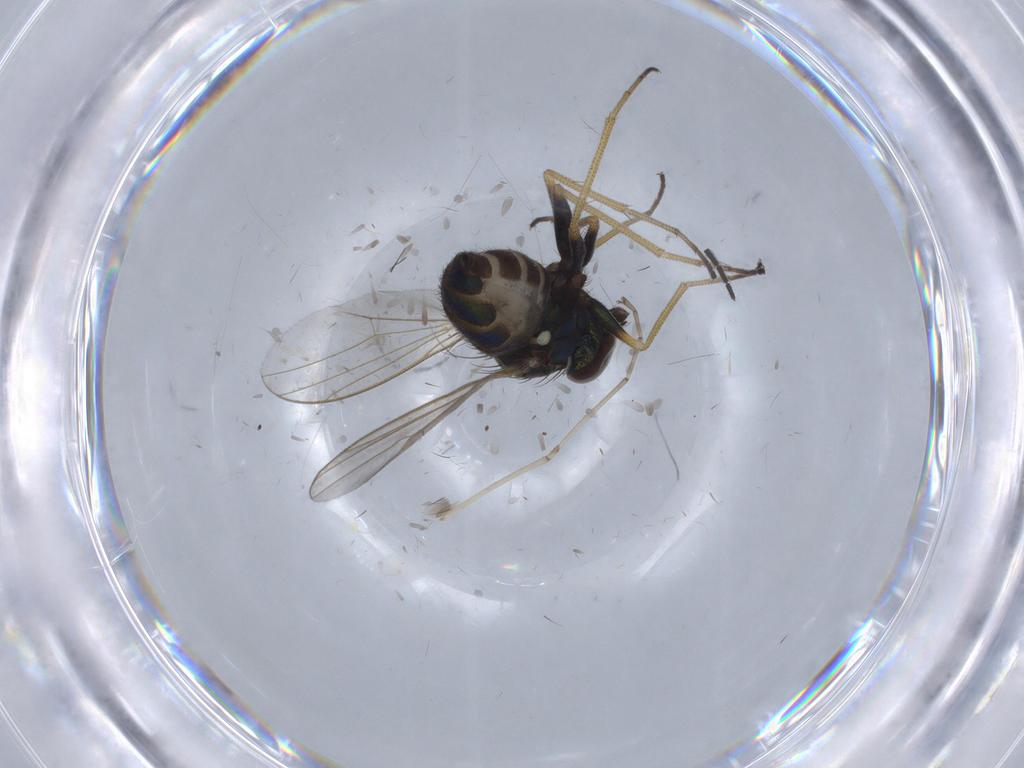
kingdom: Animalia
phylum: Arthropoda
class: Insecta
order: Diptera
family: Dolichopodidae
